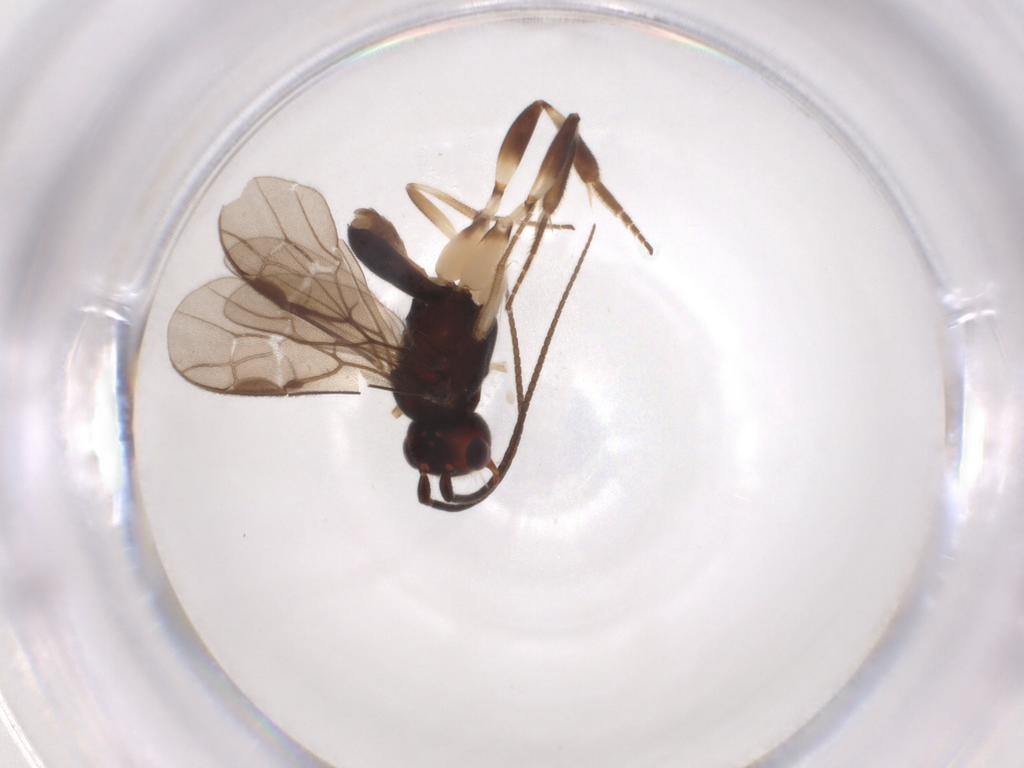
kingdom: Animalia
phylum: Arthropoda
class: Insecta
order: Hymenoptera
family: Braconidae
